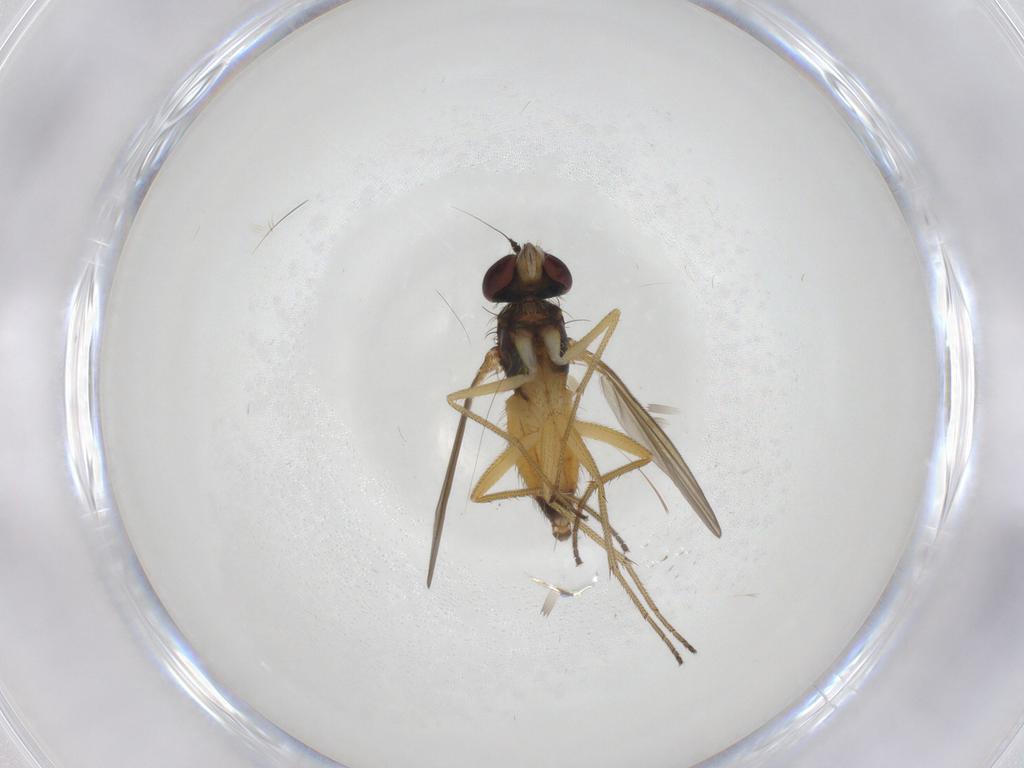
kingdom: Animalia
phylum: Arthropoda
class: Insecta
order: Diptera
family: Dolichopodidae
